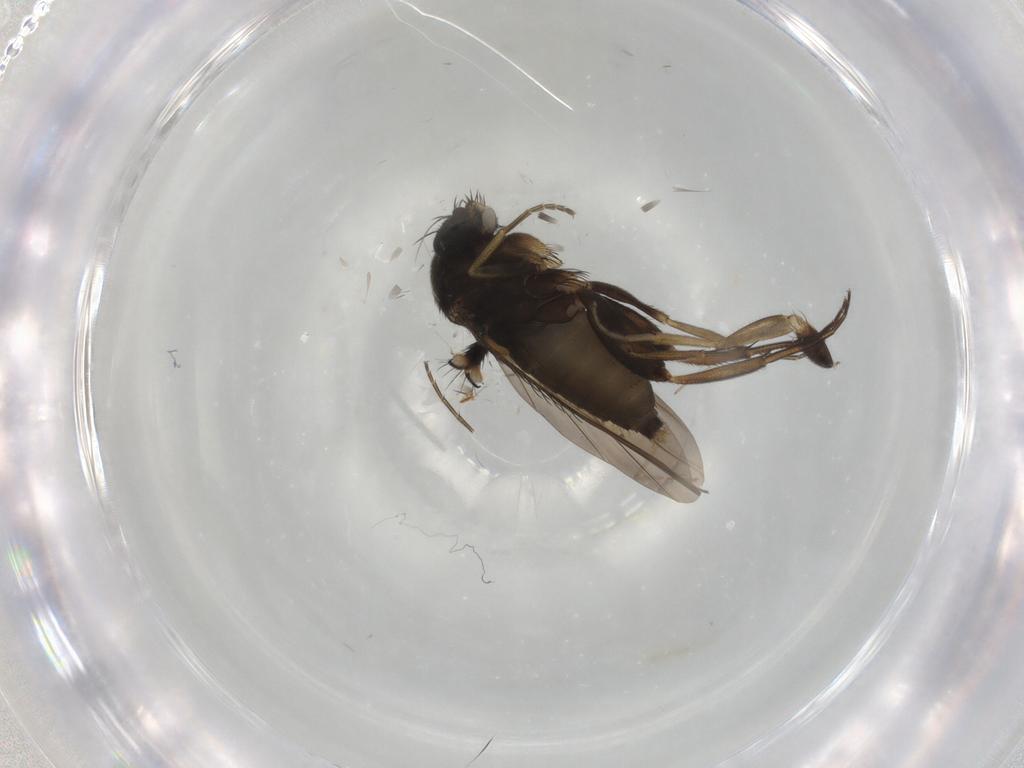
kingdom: Animalia
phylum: Arthropoda
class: Insecta
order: Diptera
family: Phoridae
